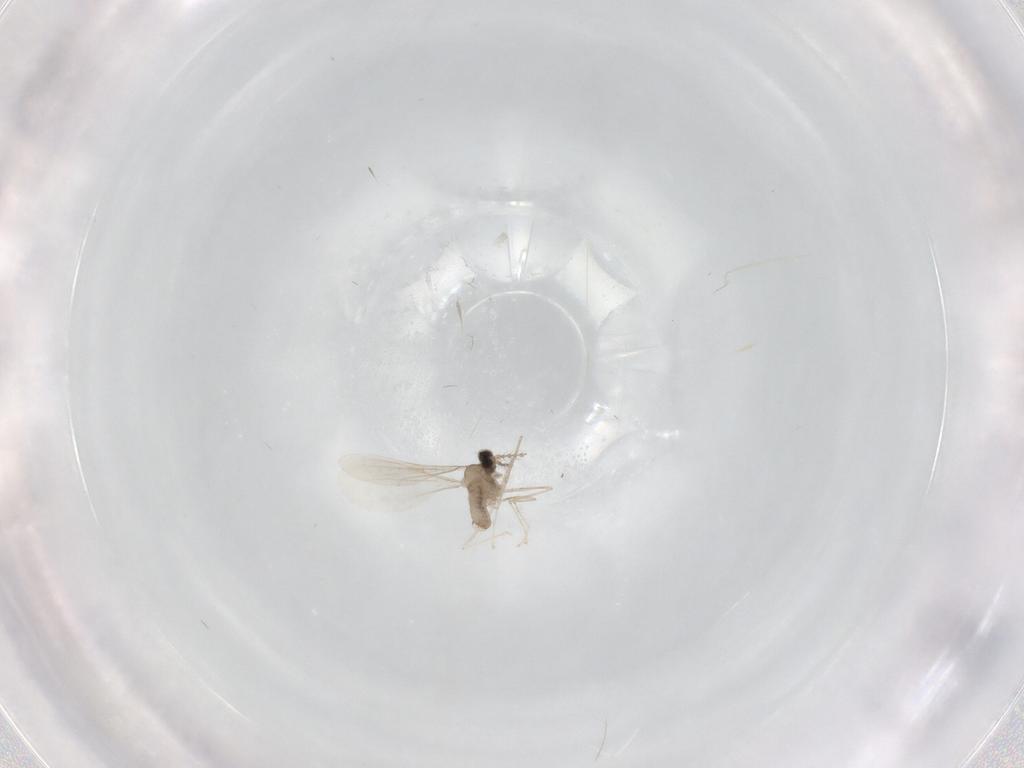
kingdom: Animalia
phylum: Arthropoda
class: Insecta
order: Diptera
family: Cecidomyiidae
